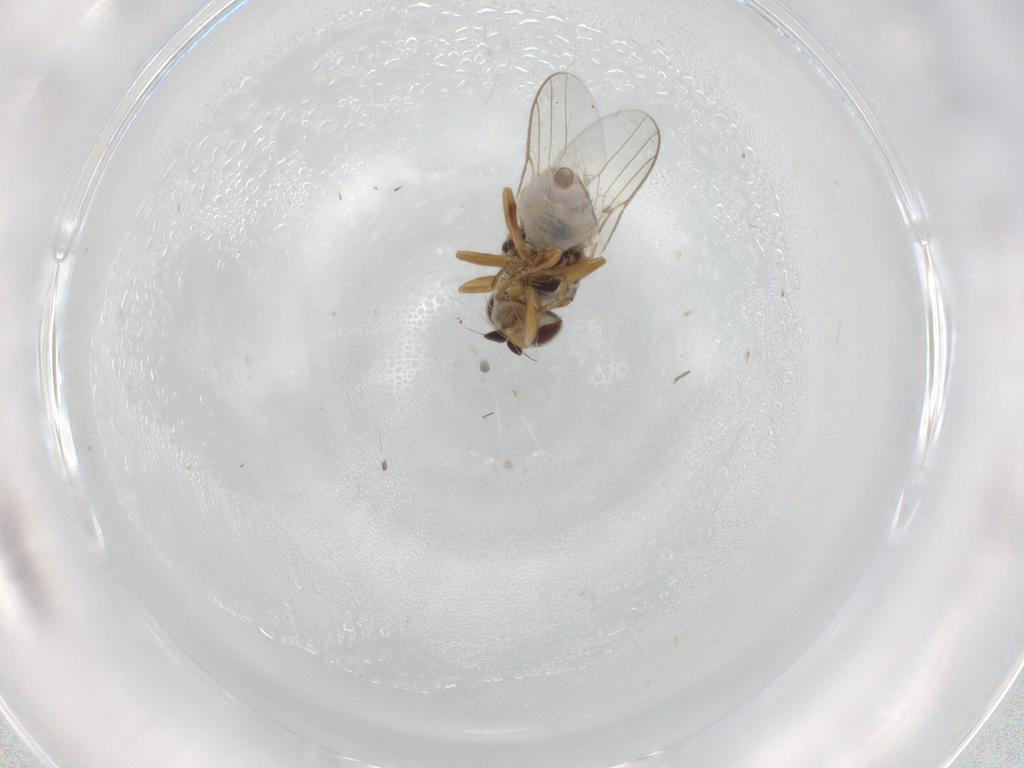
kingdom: Animalia
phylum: Arthropoda
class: Insecta
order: Diptera
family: Chloropidae
